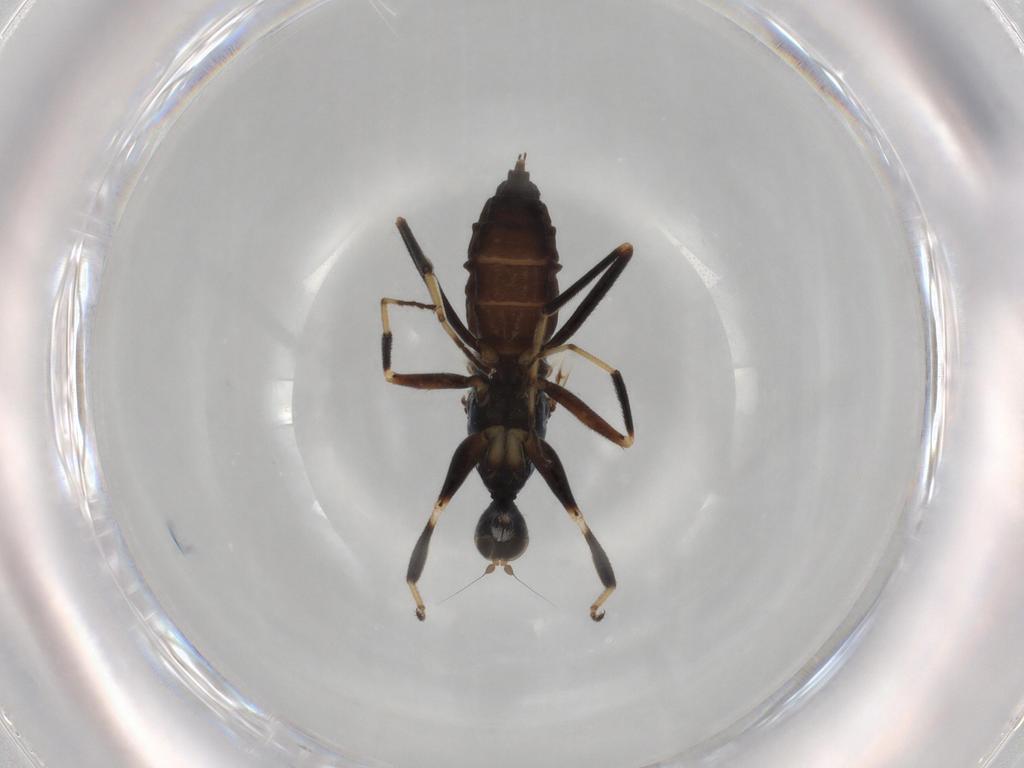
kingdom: Animalia
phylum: Arthropoda
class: Insecta
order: Diptera
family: Hybotidae
